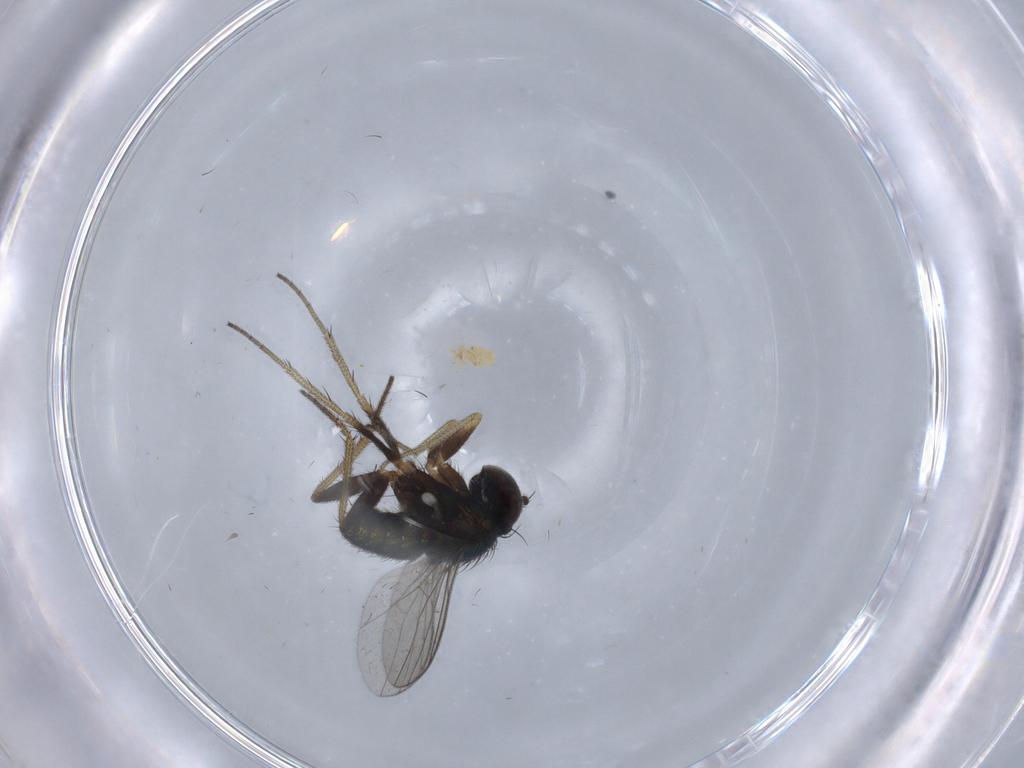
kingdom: Animalia
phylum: Arthropoda
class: Insecta
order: Diptera
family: Dolichopodidae
